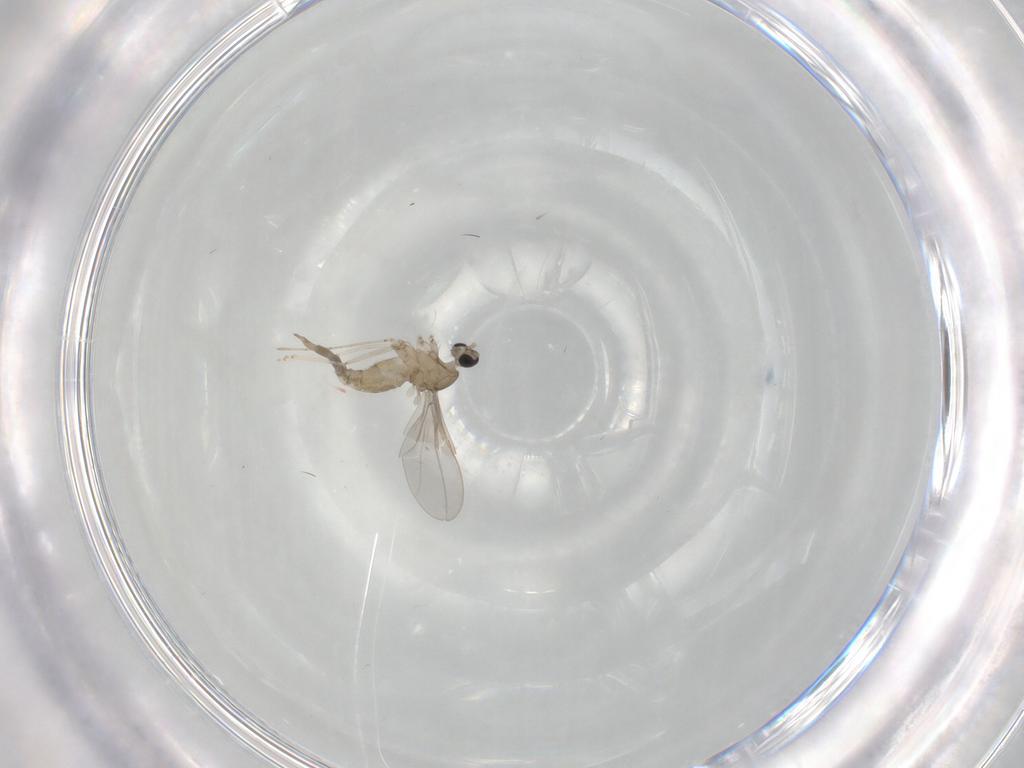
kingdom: Animalia
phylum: Arthropoda
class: Insecta
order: Diptera
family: Cecidomyiidae
